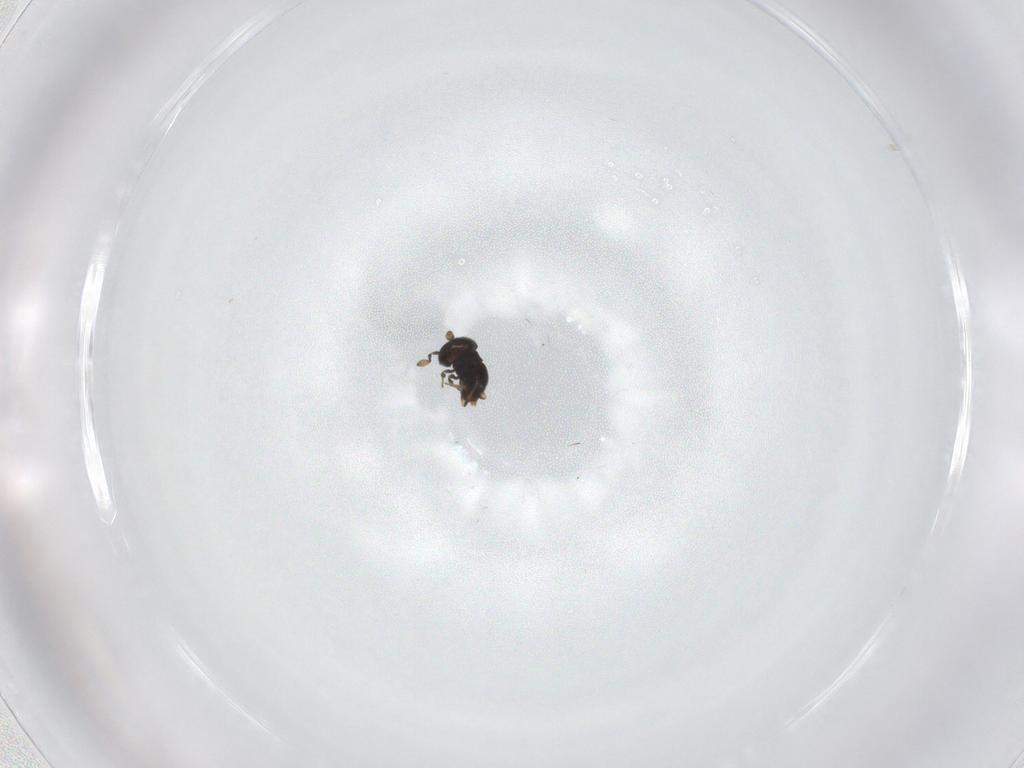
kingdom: Animalia
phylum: Arthropoda
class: Insecta
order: Hymenoptera
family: Scelionidae
